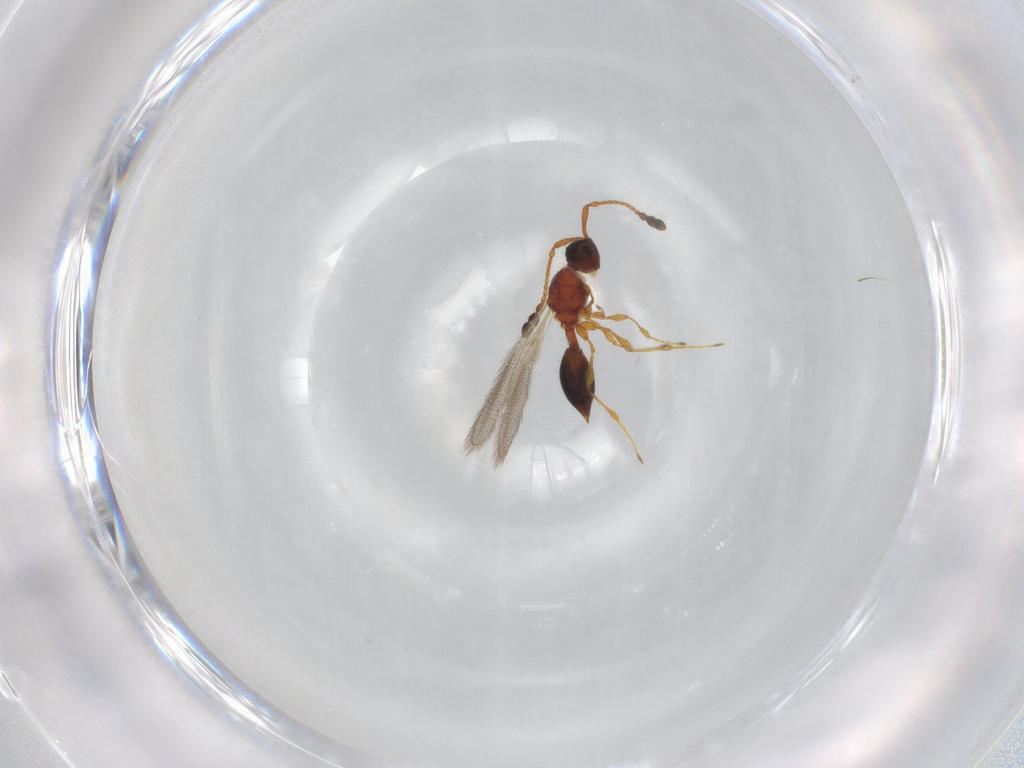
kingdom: Animalia
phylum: Arthropoda
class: Insecta
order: Hymenoptera
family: Diapriidae
